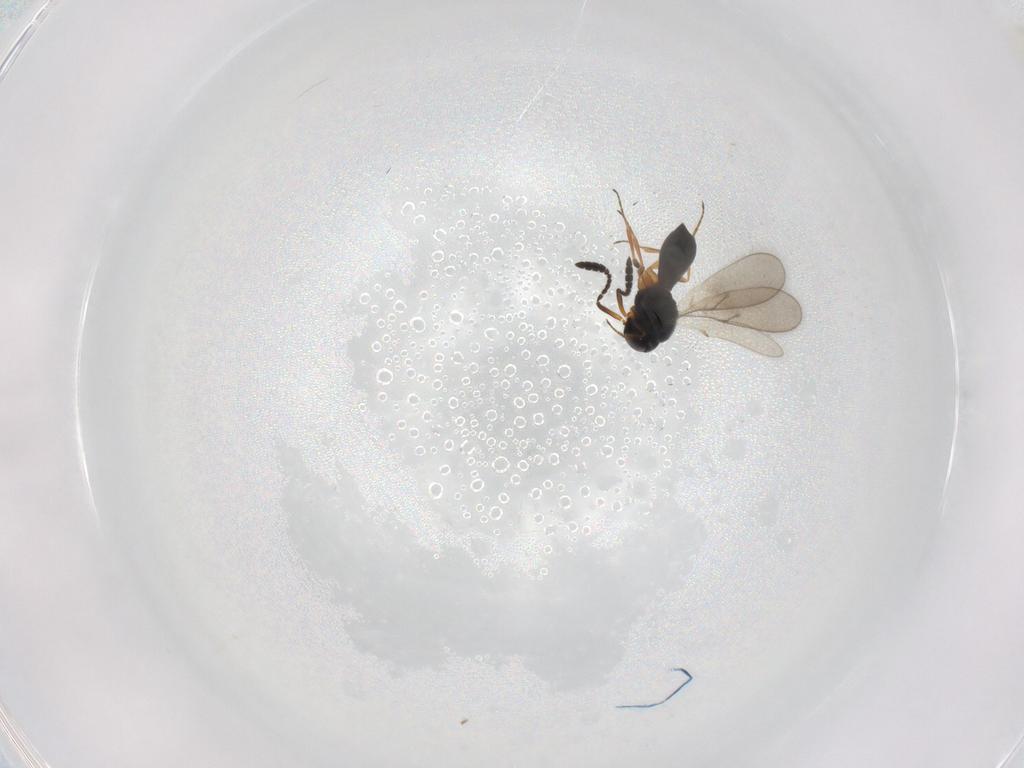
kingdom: Animalia
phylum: Arthropoda
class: Insecta
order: Hymenoptera
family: Scelionidae
